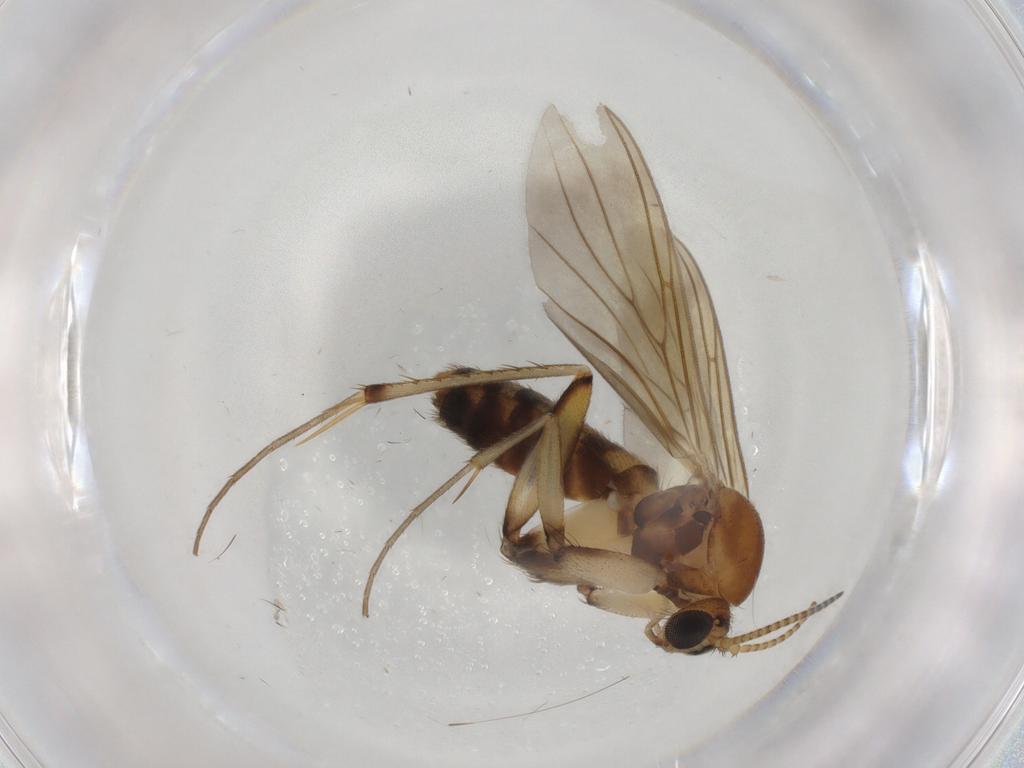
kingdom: Animalia
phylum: Arthropoda
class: Insecta
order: Diptera
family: Mycetophilidae
